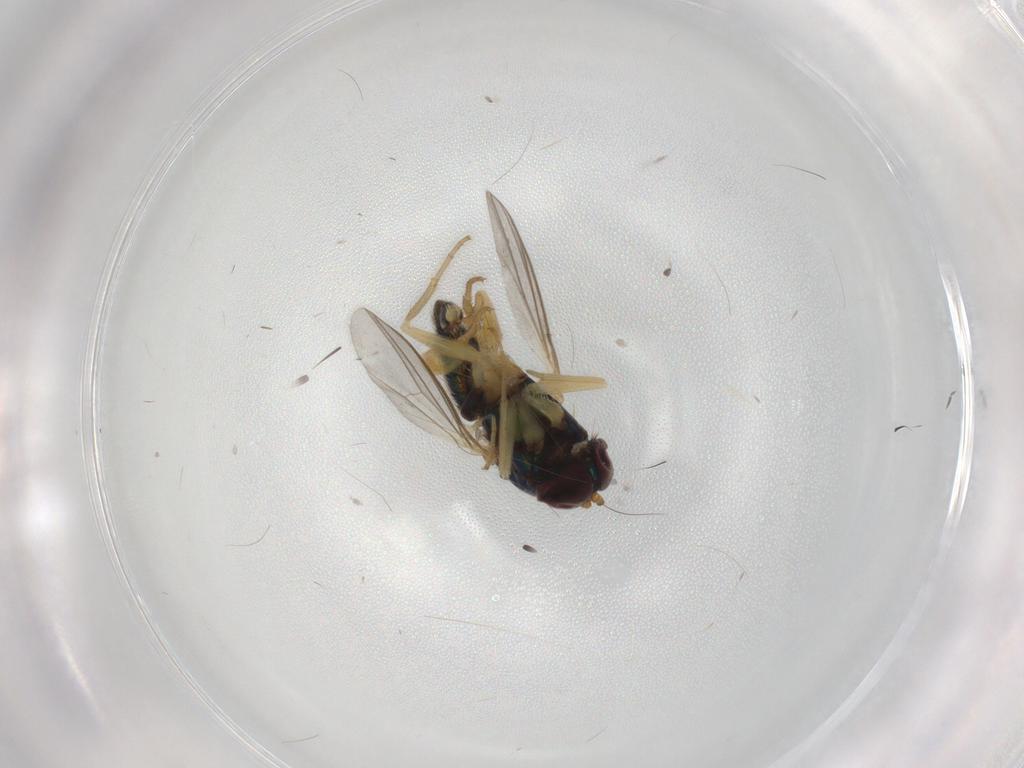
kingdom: Animalia
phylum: Arthropoda
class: Insecta
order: Diptera
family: Dolichopodidae
